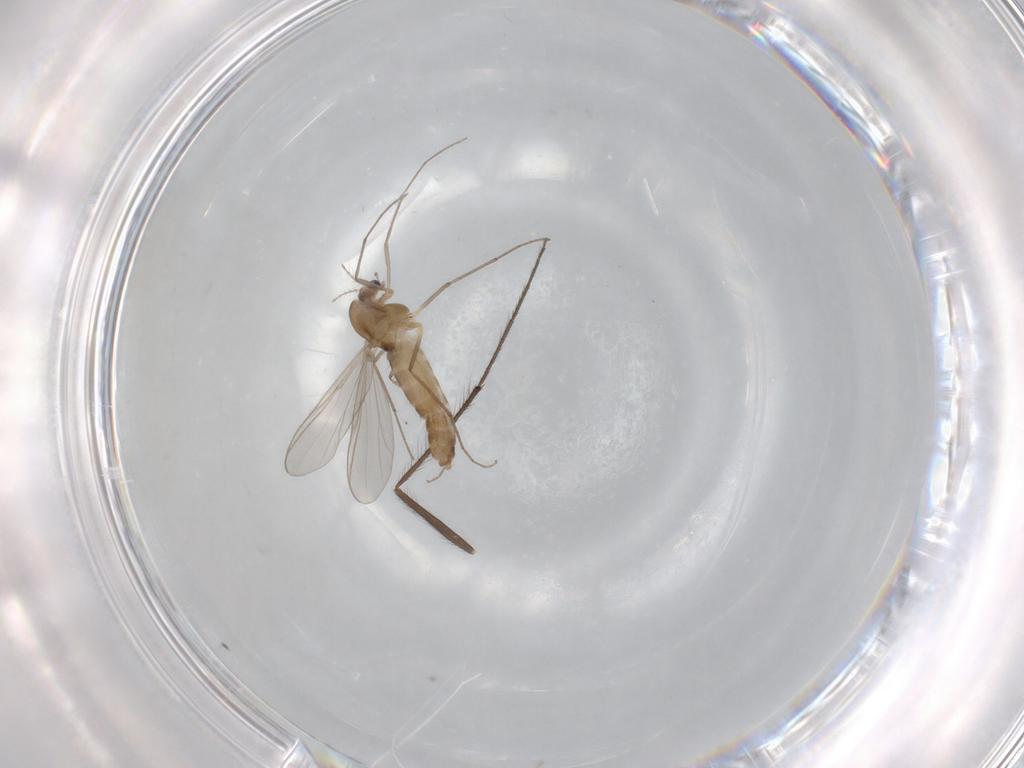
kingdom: Animalia
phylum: Arthropoda
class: Insecta
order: Diptera
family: Chironomidae
